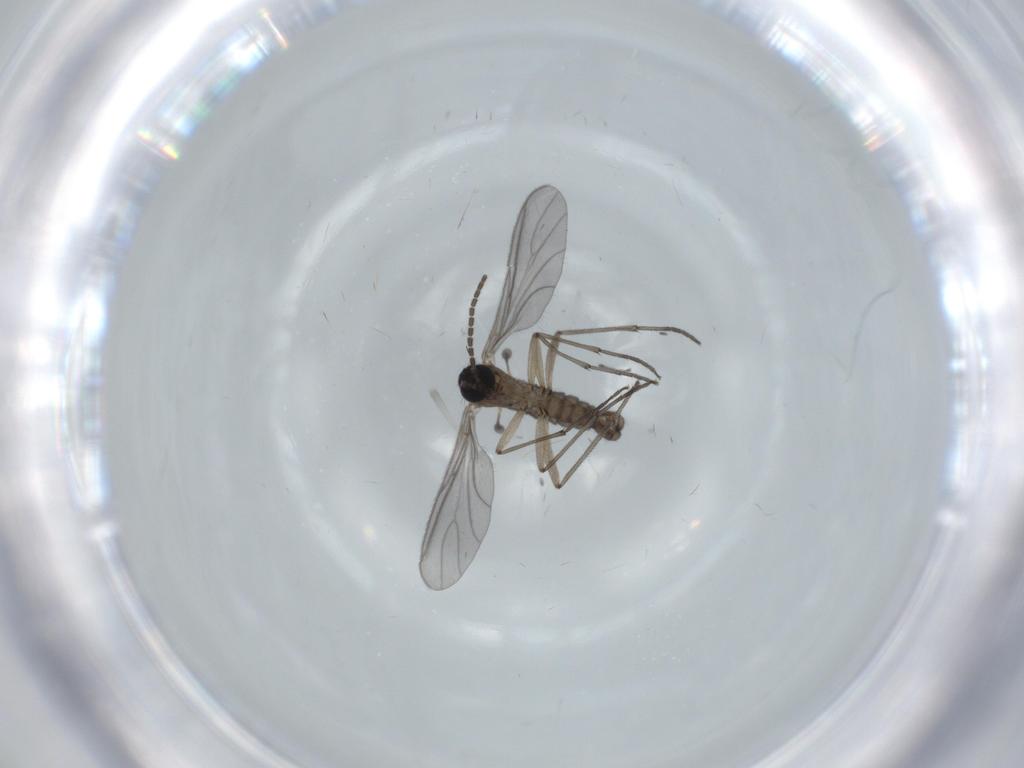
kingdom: Animalia
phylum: Arthropoda
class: Insecta
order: Diptera
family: Sciaridae
